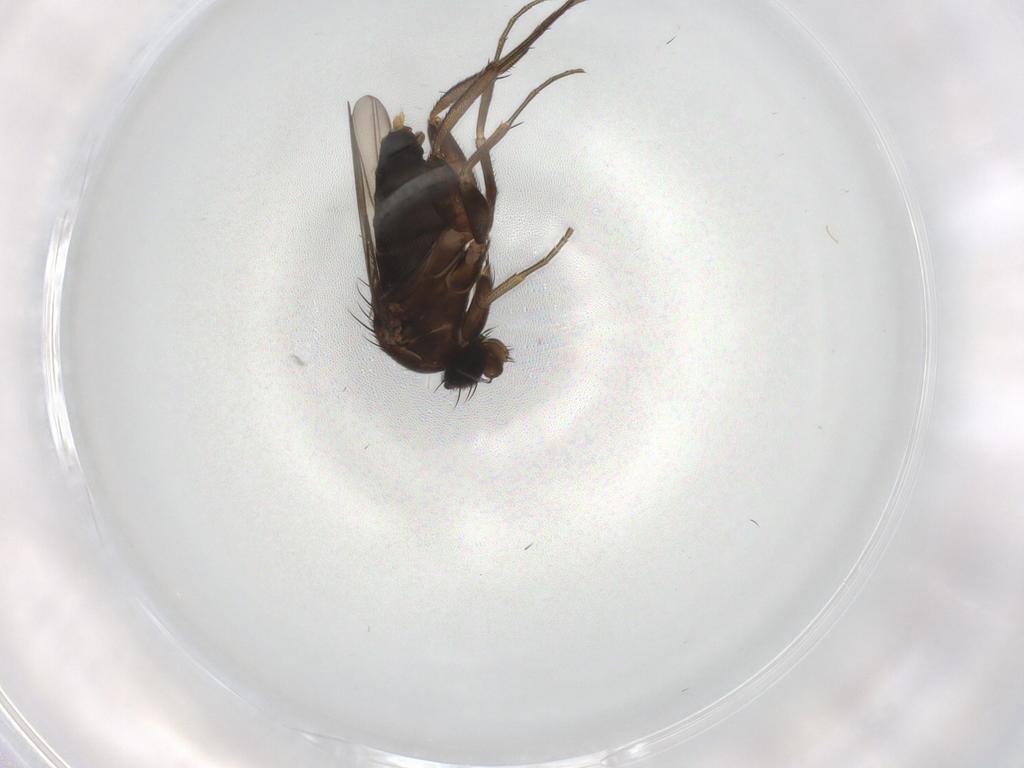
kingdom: Animalia
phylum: Arthropoda
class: Insecta
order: Diptera
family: Phoridae
